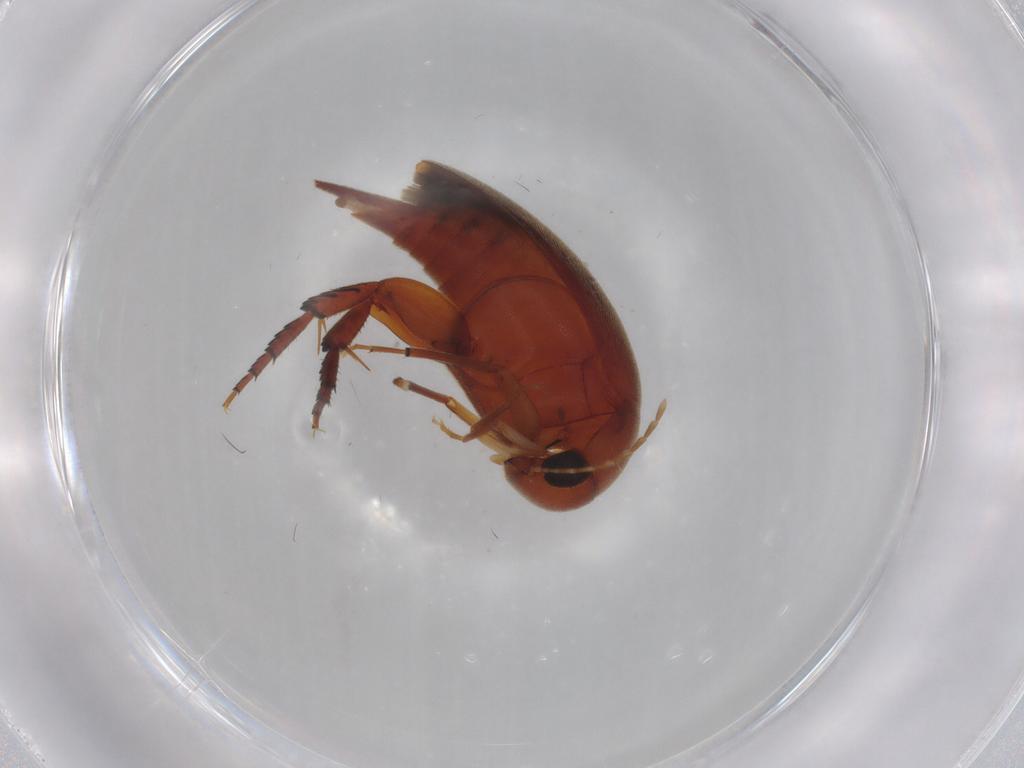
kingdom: Animalia
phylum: Arthropoda
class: Insecta
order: Coleoptera
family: Mordellidae
